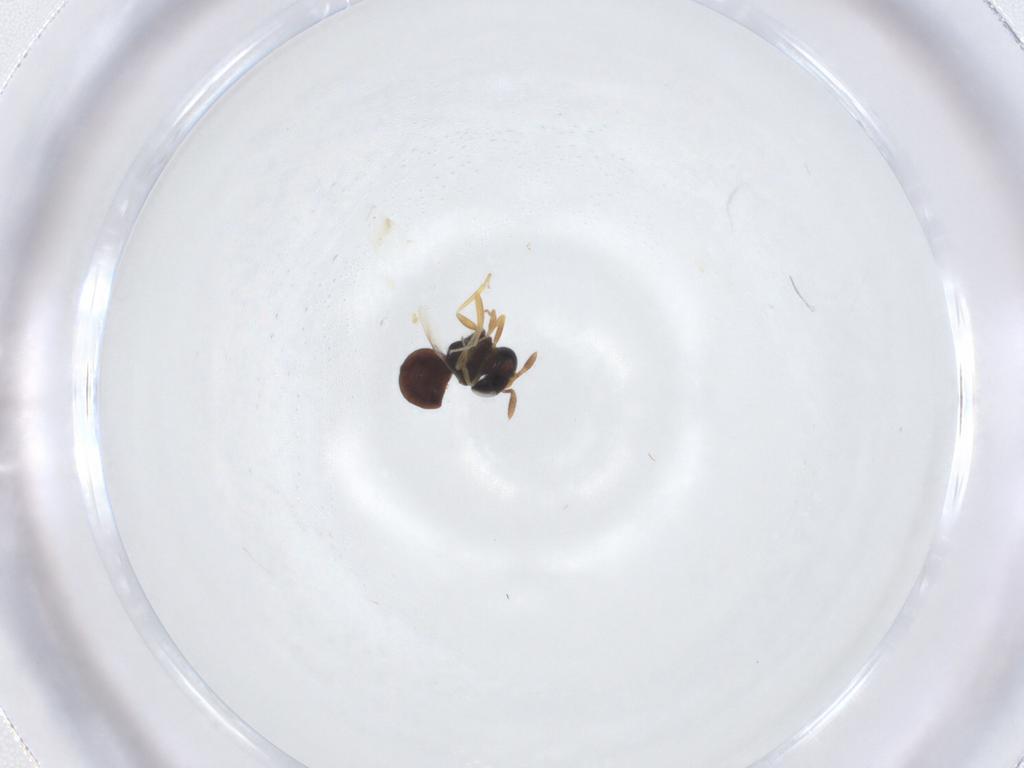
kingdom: Animalia
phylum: Arthropoda
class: Insecta
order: Hymenoptera
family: Scelionidae
